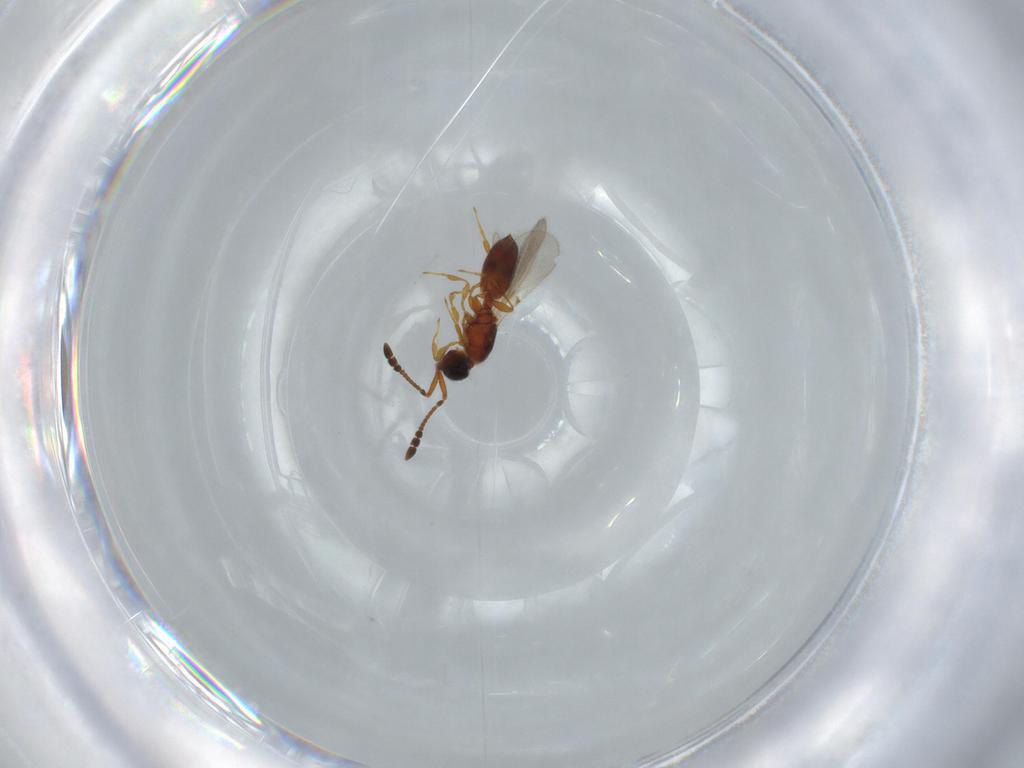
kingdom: Animalia
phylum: Arthropoda
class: Insecta
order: Hymenoptera
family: Diapriidae
